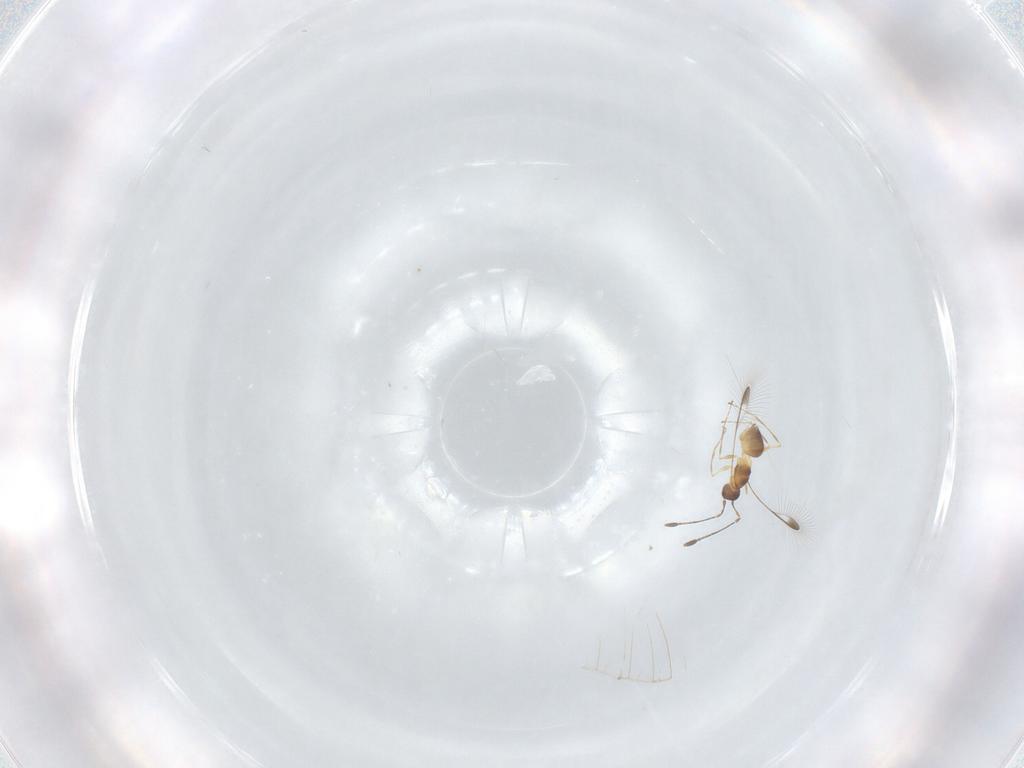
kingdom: Animalia
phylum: Arthropoda
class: Insecta
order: Hymenoptera
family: Mymaridae
